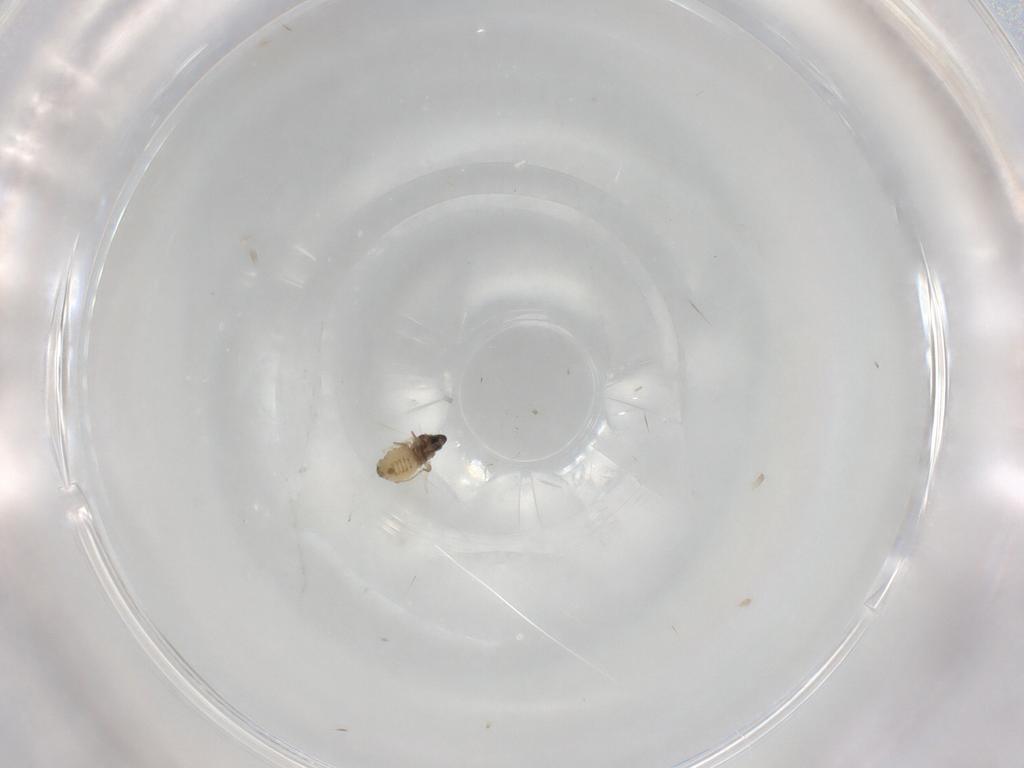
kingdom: Animalia
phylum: Arthropoda
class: Insecta
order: Diptera
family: Cecidomyiidae
